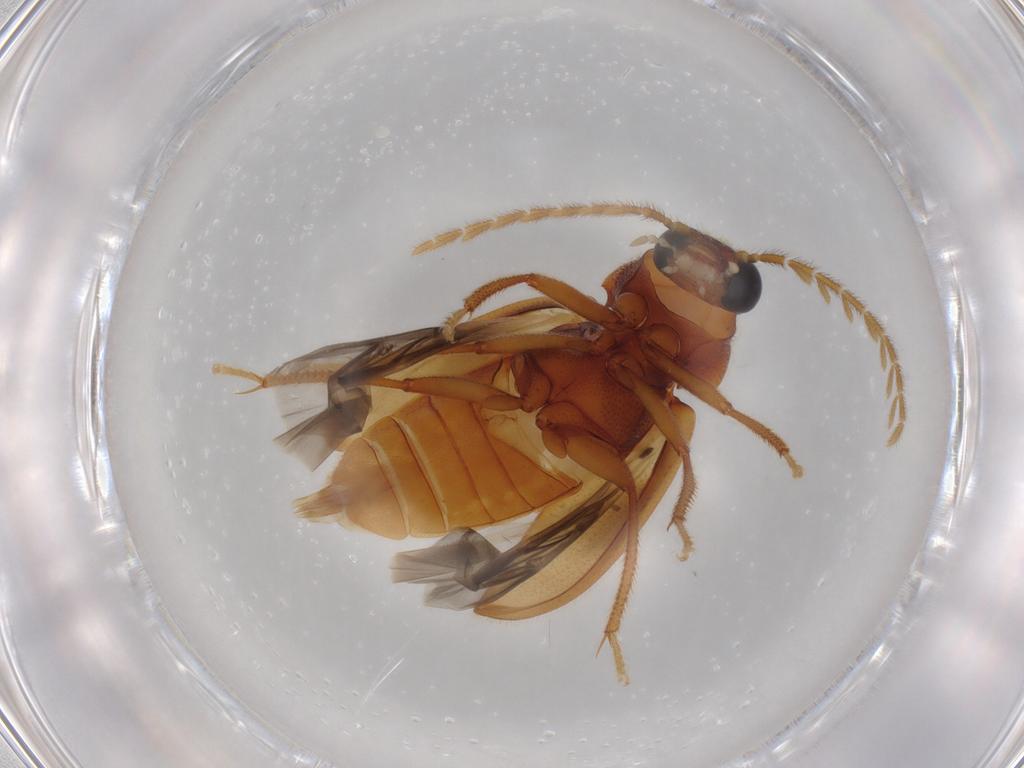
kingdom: Animalia
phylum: Arthropoda
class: Insecta
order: Coleoptera
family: Ptilodactylidae
